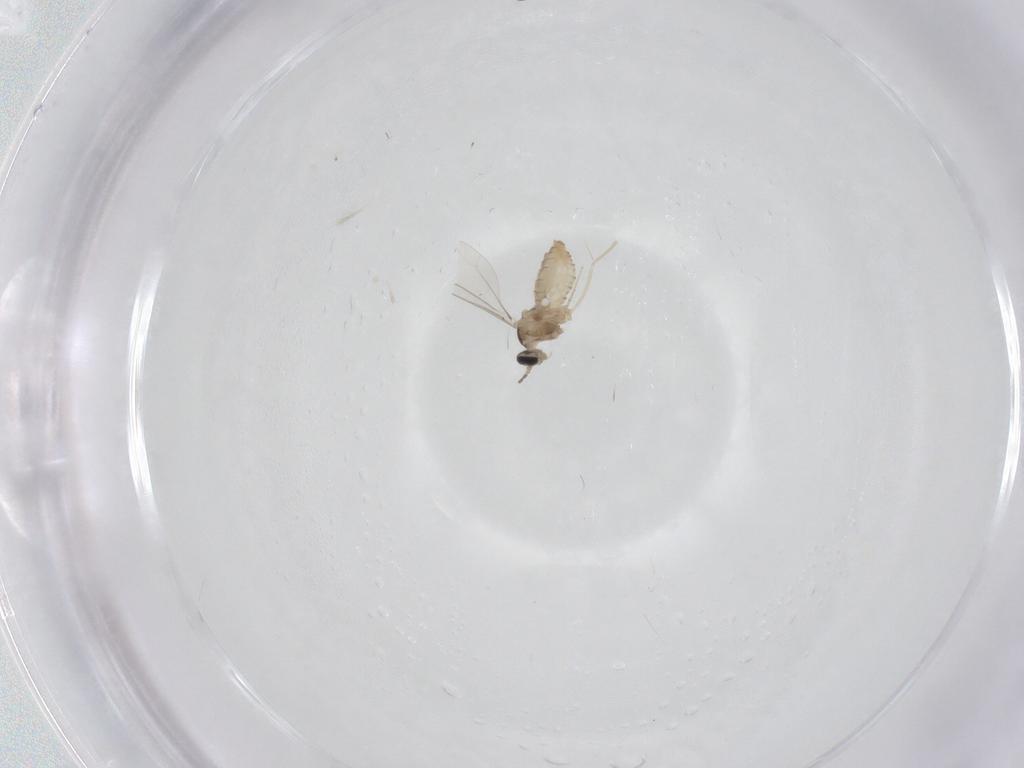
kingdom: Animalia
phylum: Arthropoda
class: Insecta
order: Diptera
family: Cecidomyiidae
